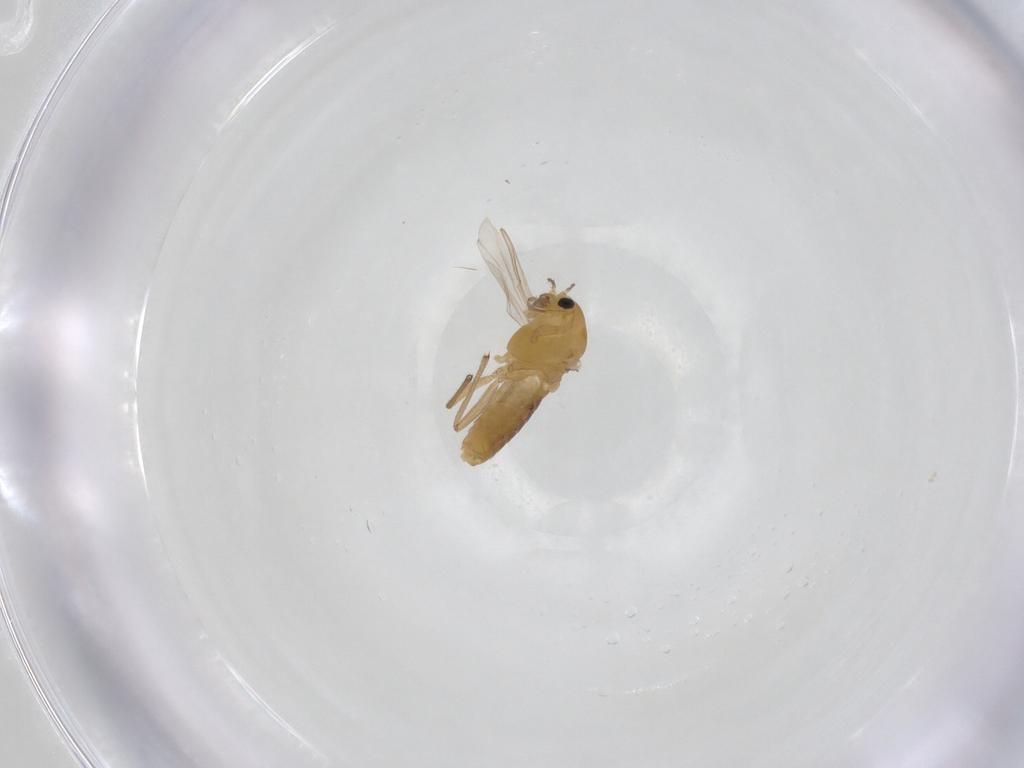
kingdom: Animalia
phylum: Arthropoda
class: Insecta
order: Diptera
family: Chironomidae
